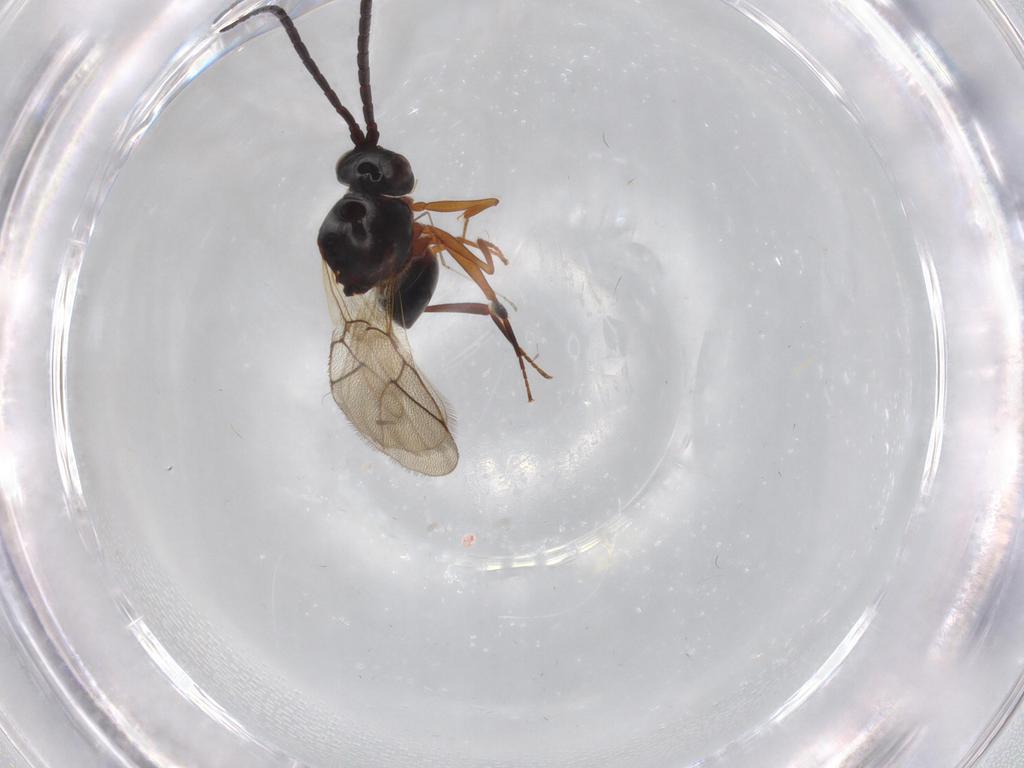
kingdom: Animalia
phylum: Arthropoda
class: Insecta
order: Hymenoptera
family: Figitidae
